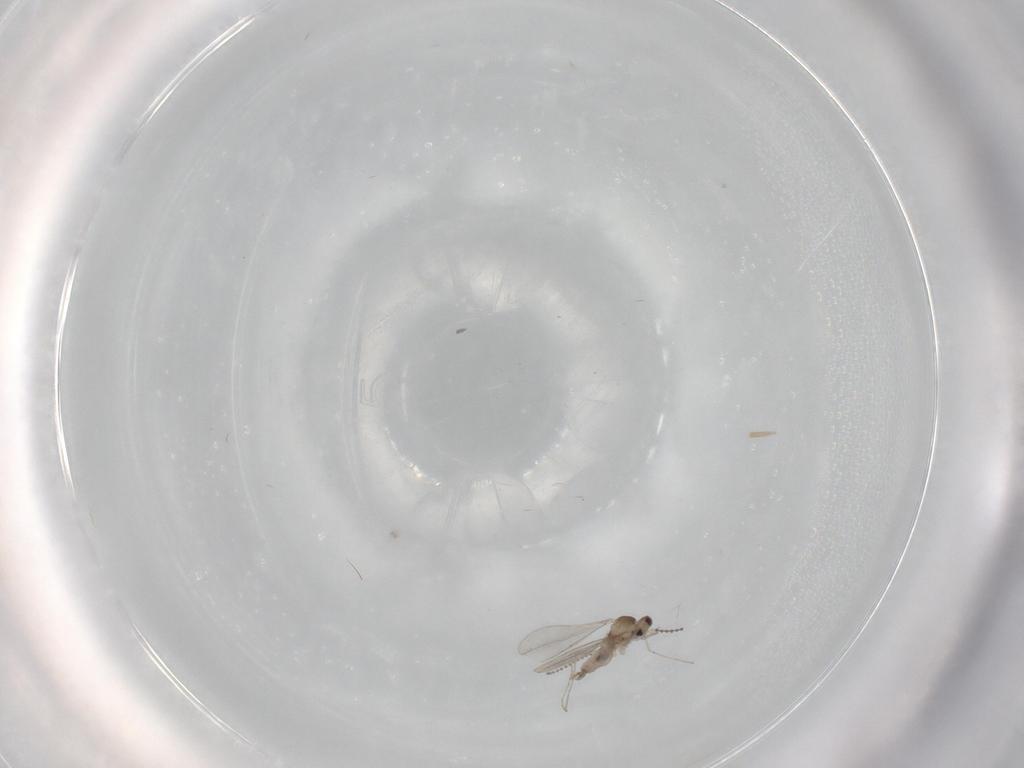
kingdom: Animalia
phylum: Arthropoda
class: Insecta
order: Diptera
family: Cecidomyiidae
